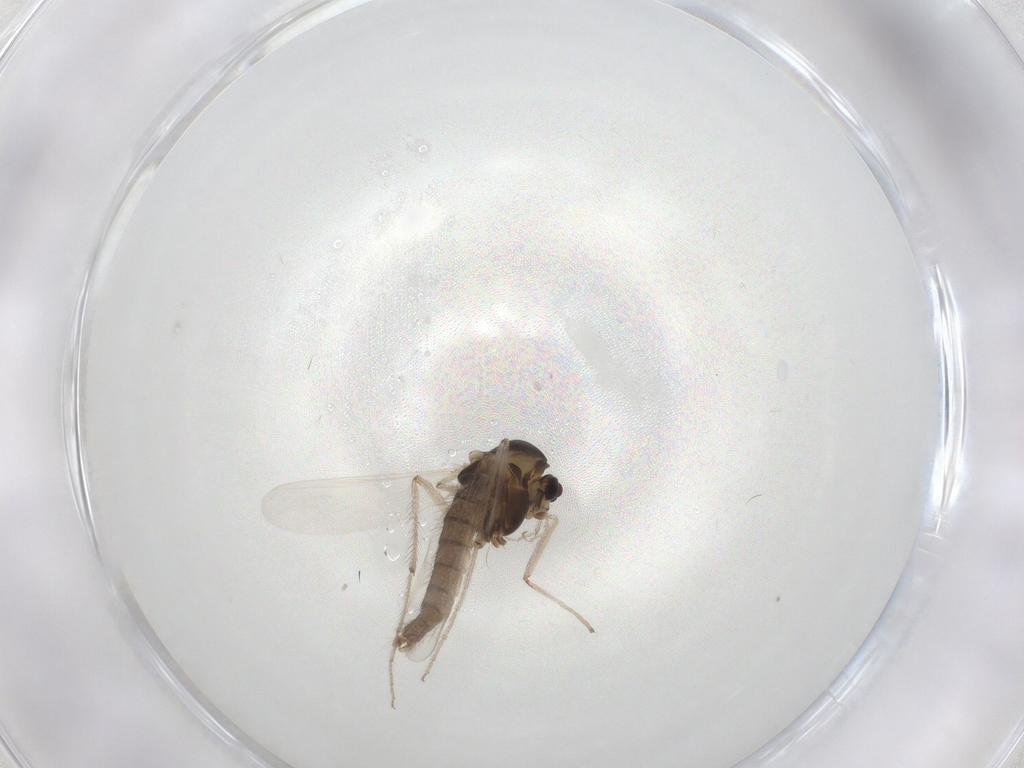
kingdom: Animalia
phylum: Arthropoda
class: Insecta
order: Diptera
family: Chironomidae
